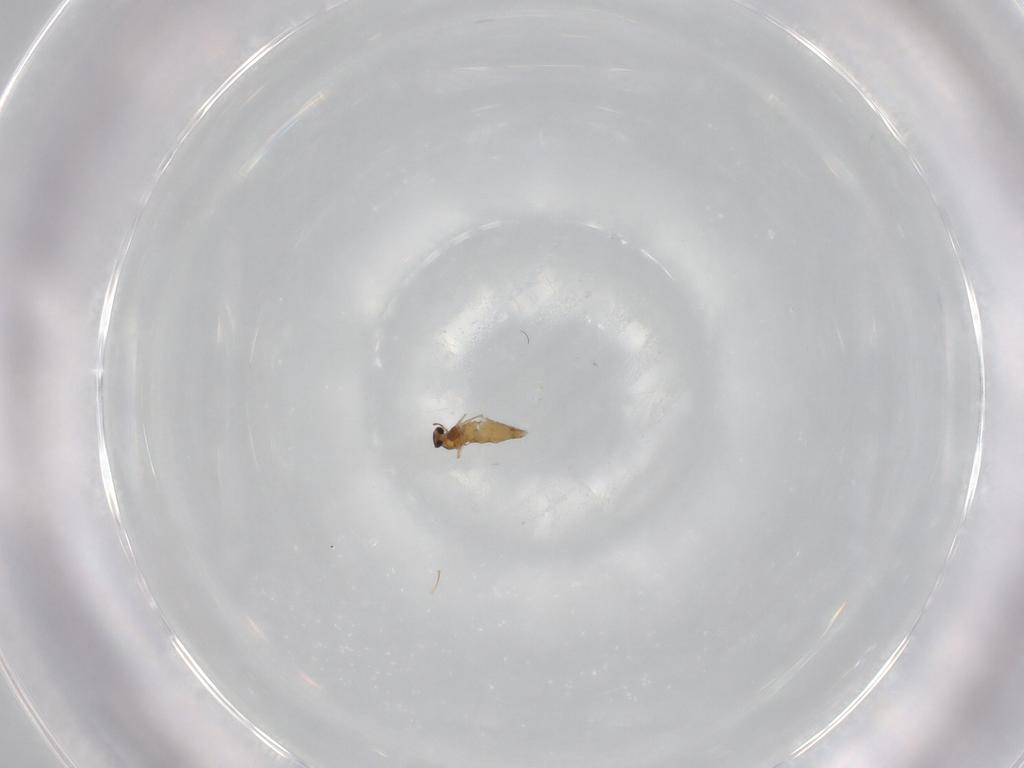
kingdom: Animalia
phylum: Arthropoda
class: Insecta
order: Diptera
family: Chironomidae
